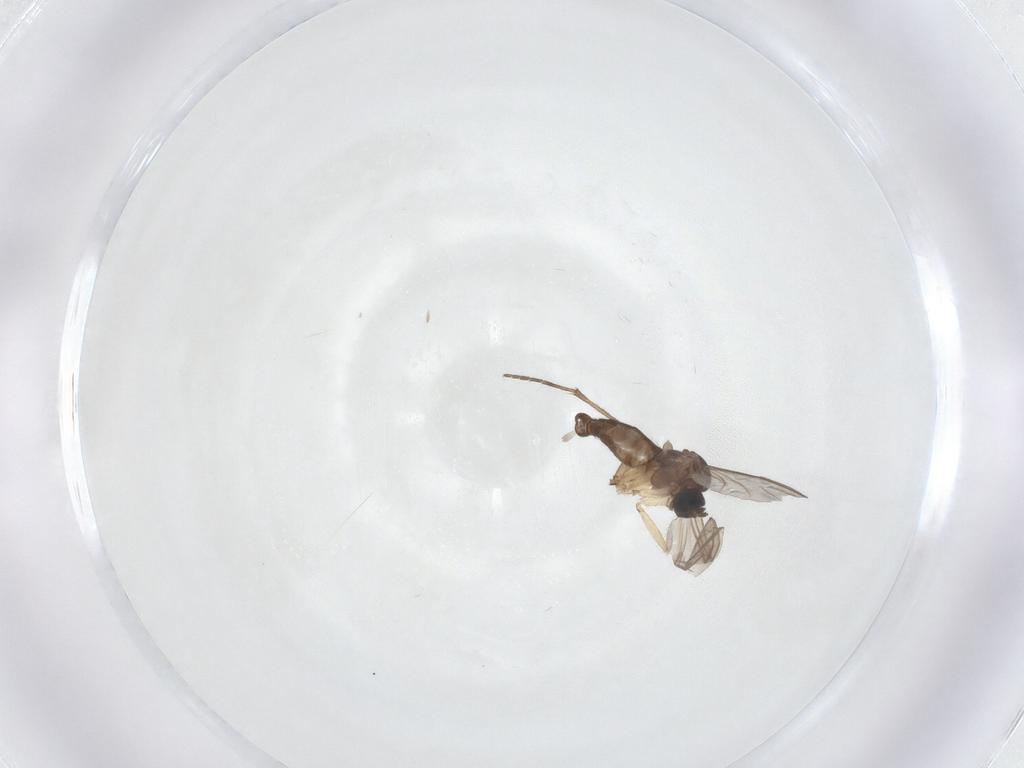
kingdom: Animalia
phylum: Arthropoda
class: Insecta
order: Diptera
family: Sciaridae
